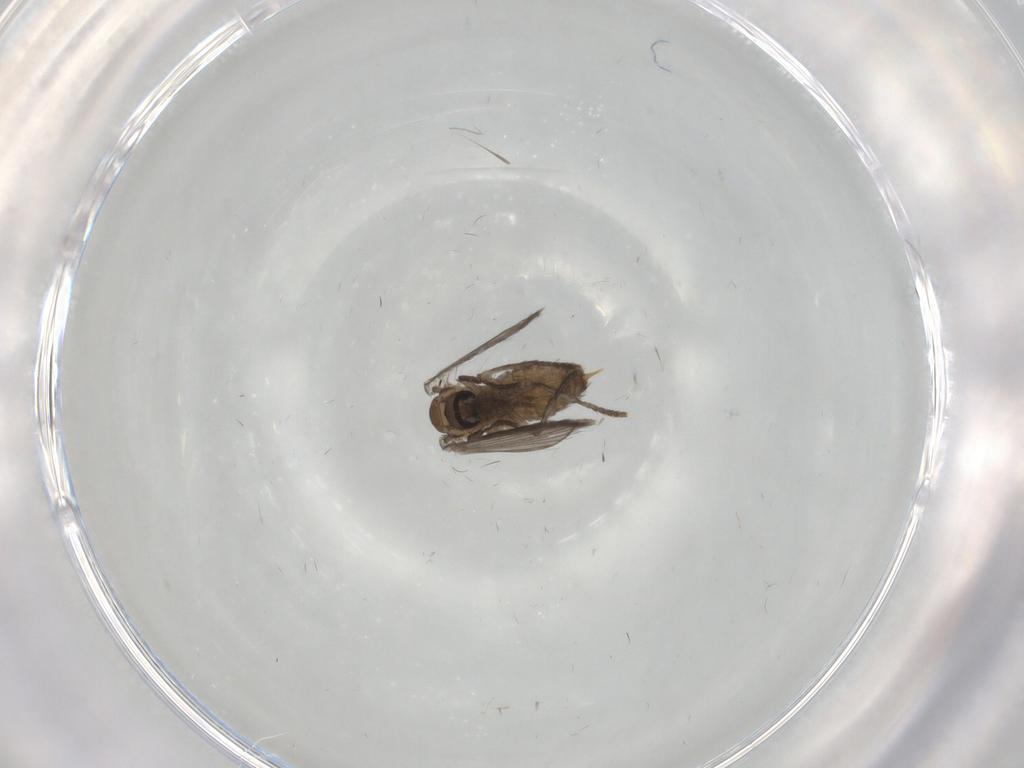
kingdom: Animalia
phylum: Arthropoda
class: Insecta
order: Diptera
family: Psychodidae
